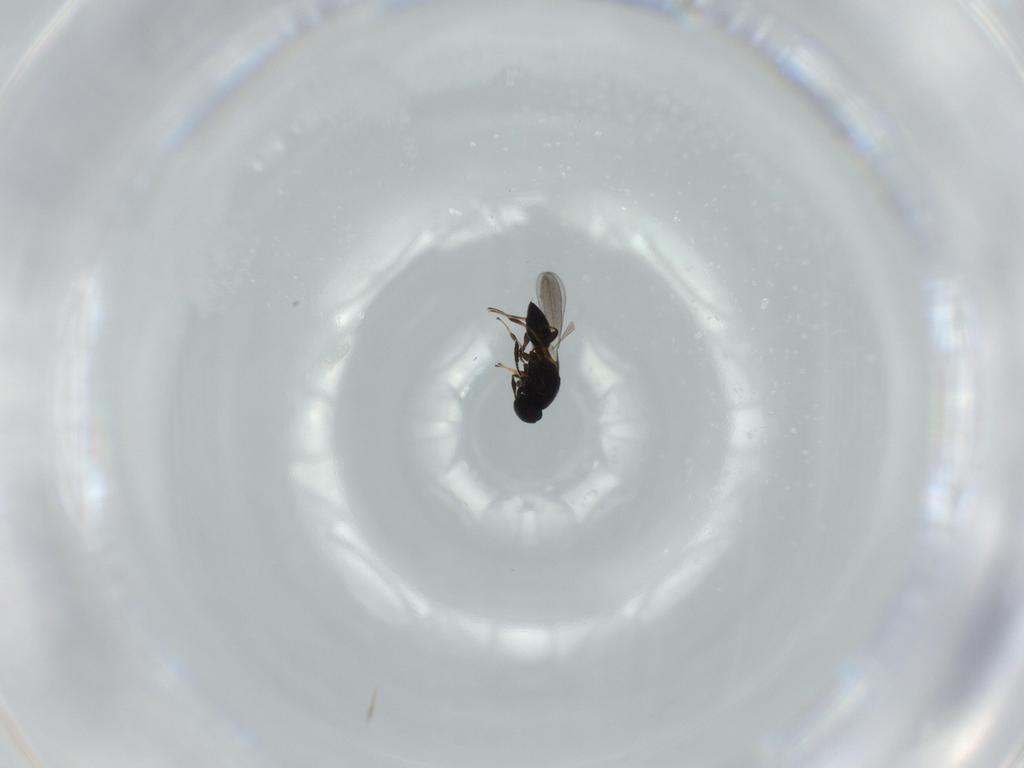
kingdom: Animalia
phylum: Arthropoda
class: Insecta
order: Hymenoptera
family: Platygastridae
